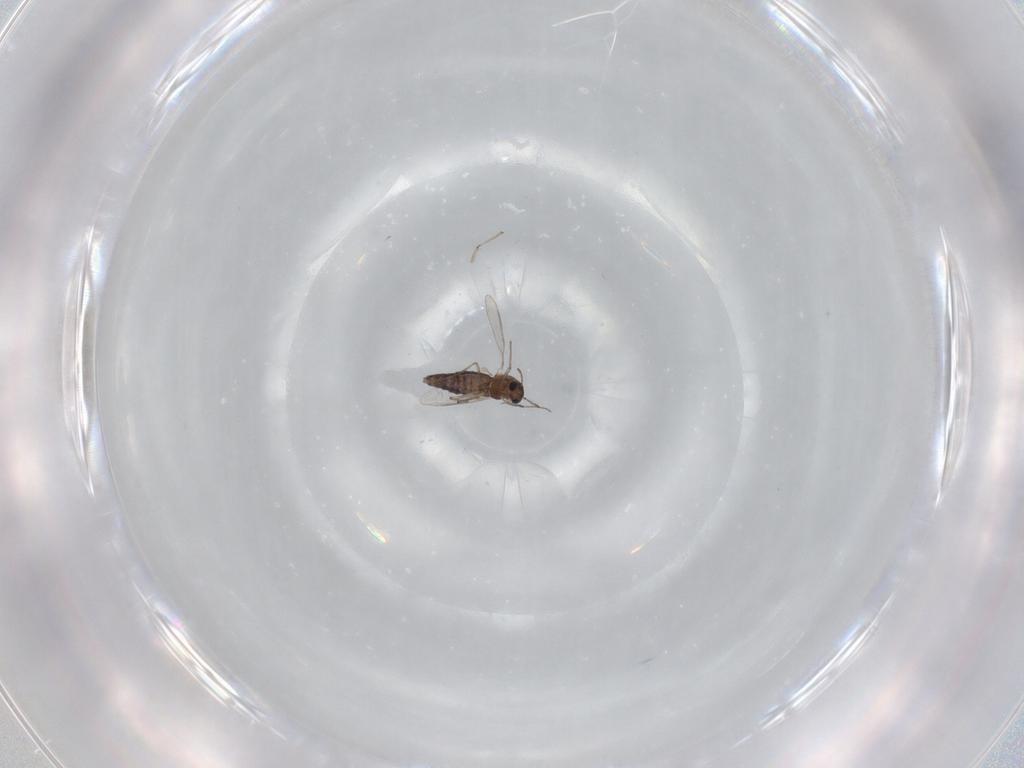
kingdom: Animalia
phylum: Arthropoda
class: Insecta
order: Diptera
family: Chironomidae
